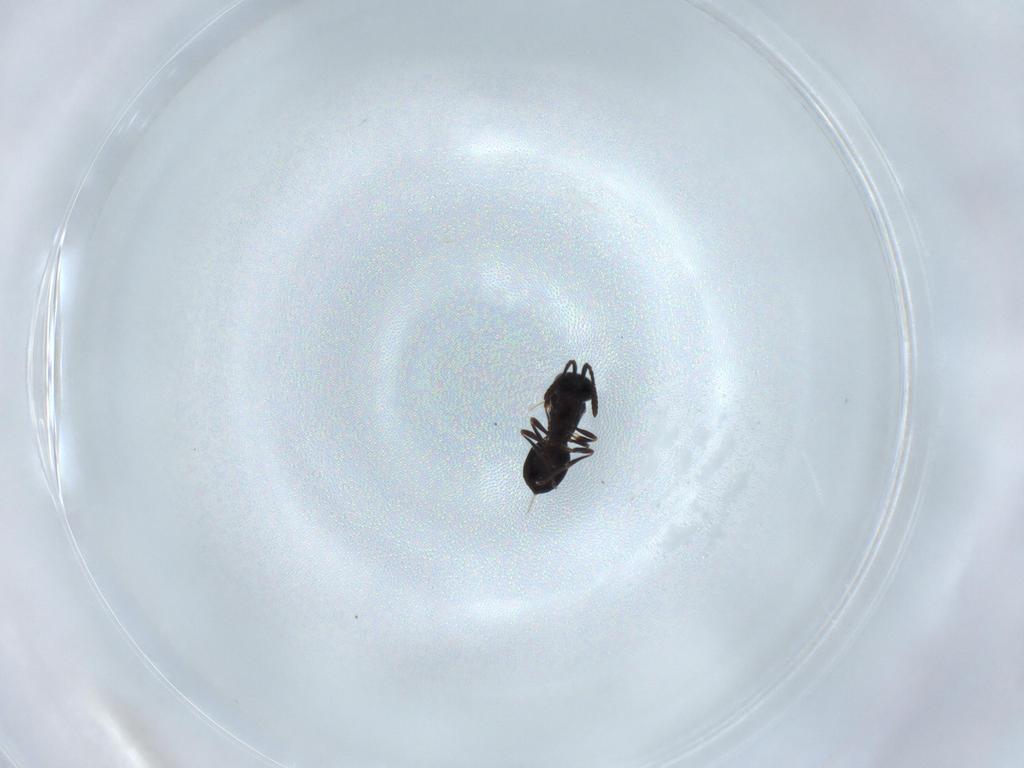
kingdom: Animalia
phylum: Arthropoda
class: Insecta
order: Hymenoptera
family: Scelionidae
